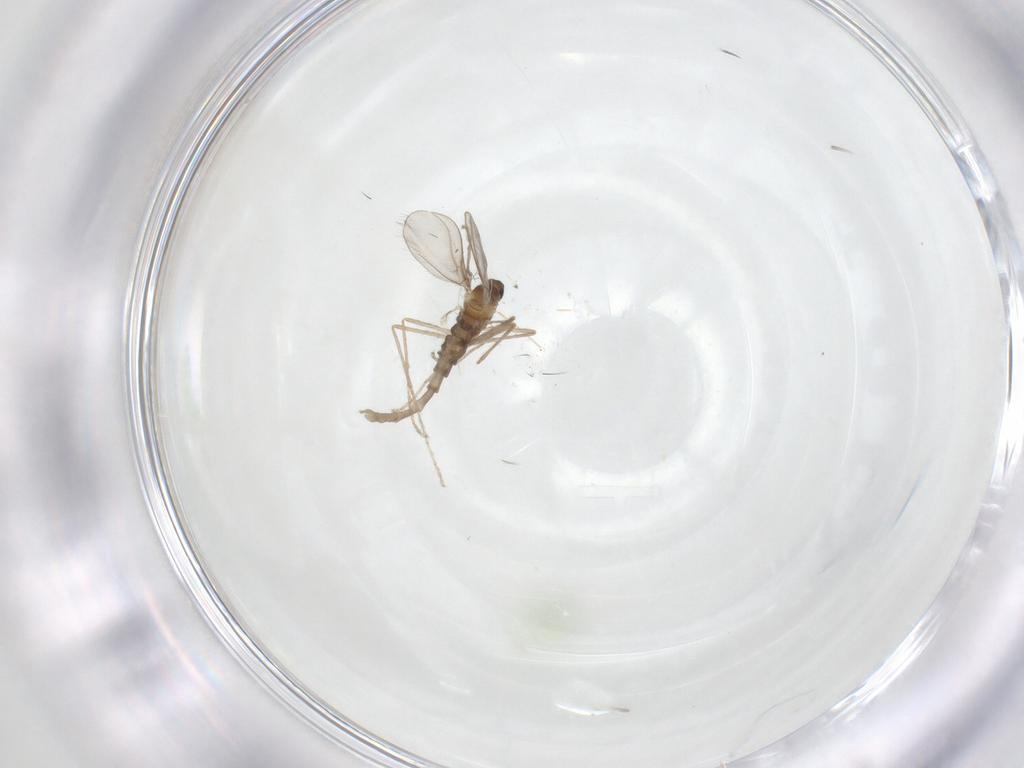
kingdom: Animalia
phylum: Arthropoda
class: Insecta
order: Diptera
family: Cecidomyiidae
